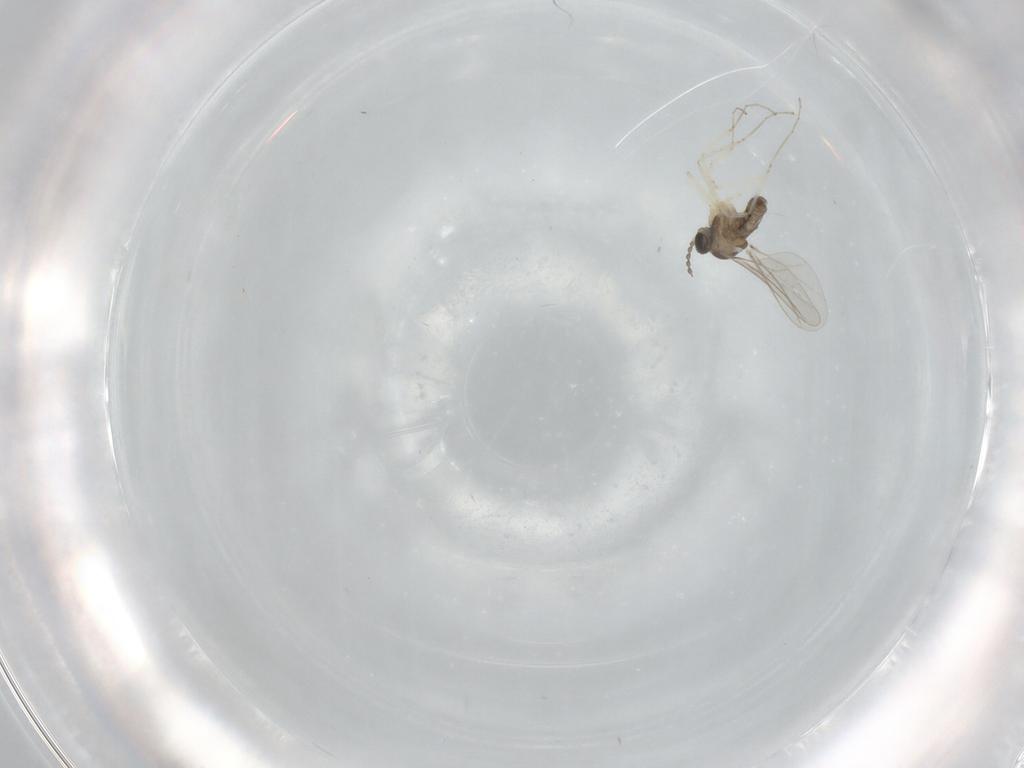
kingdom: Animalia
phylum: Arthropoda
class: Insecta
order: Diptera
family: Cecidomyiidae
